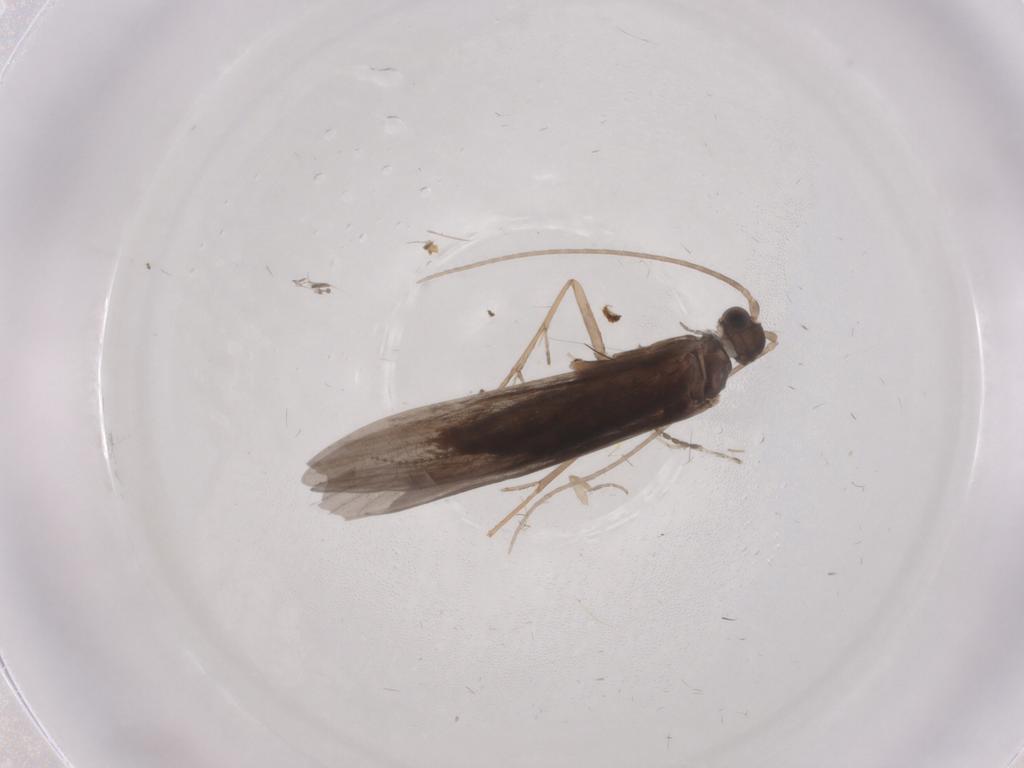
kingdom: Animalia
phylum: Arthropoda
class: Insecta
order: Trichoptera
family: Xiphocentronidae
